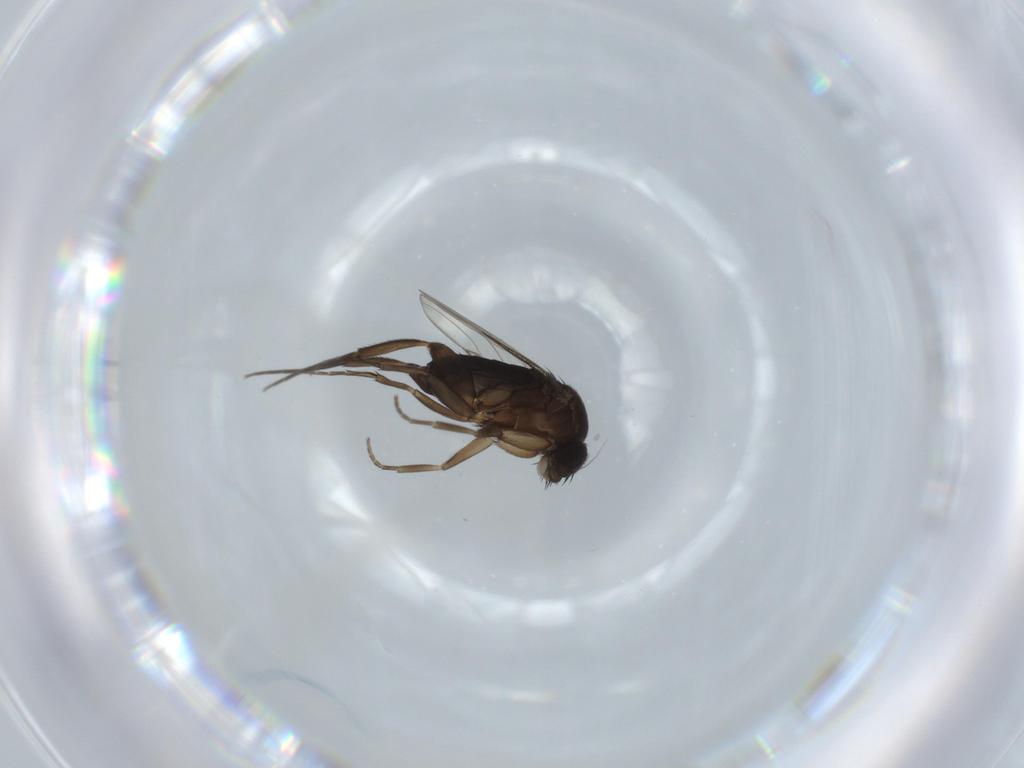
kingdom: Animalia
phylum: Arthropoda
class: Insecta
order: Diptera
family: Phoridae
